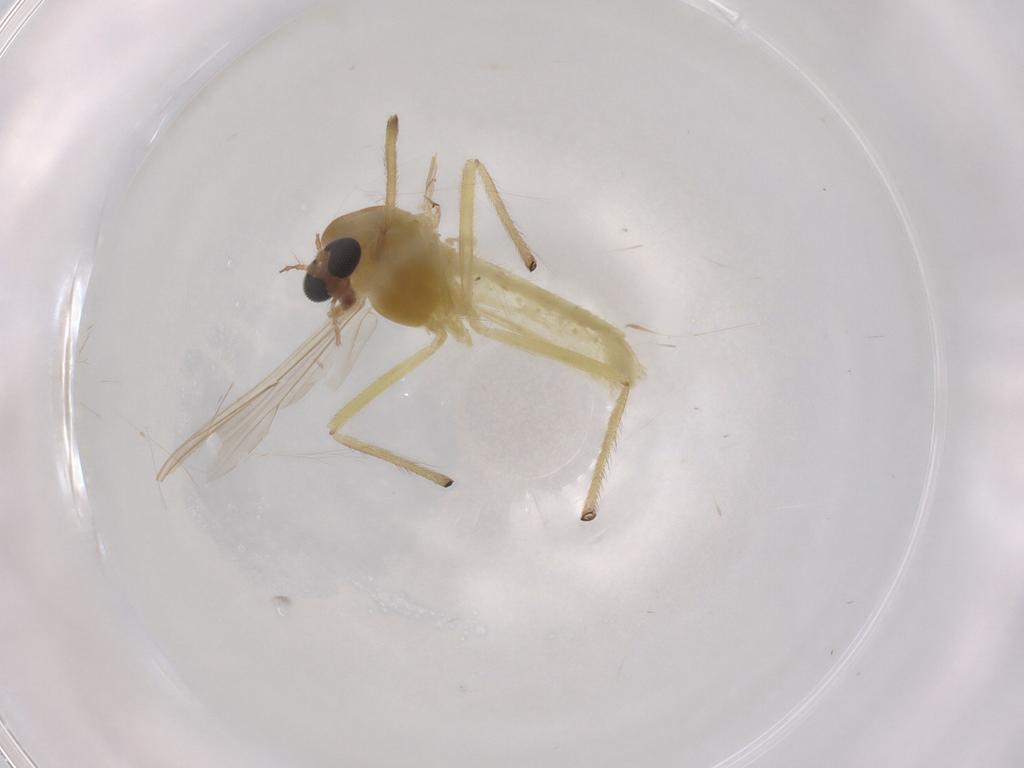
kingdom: Animalia
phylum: Arthropoda
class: Insecta
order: Diptera
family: Chironomidae
